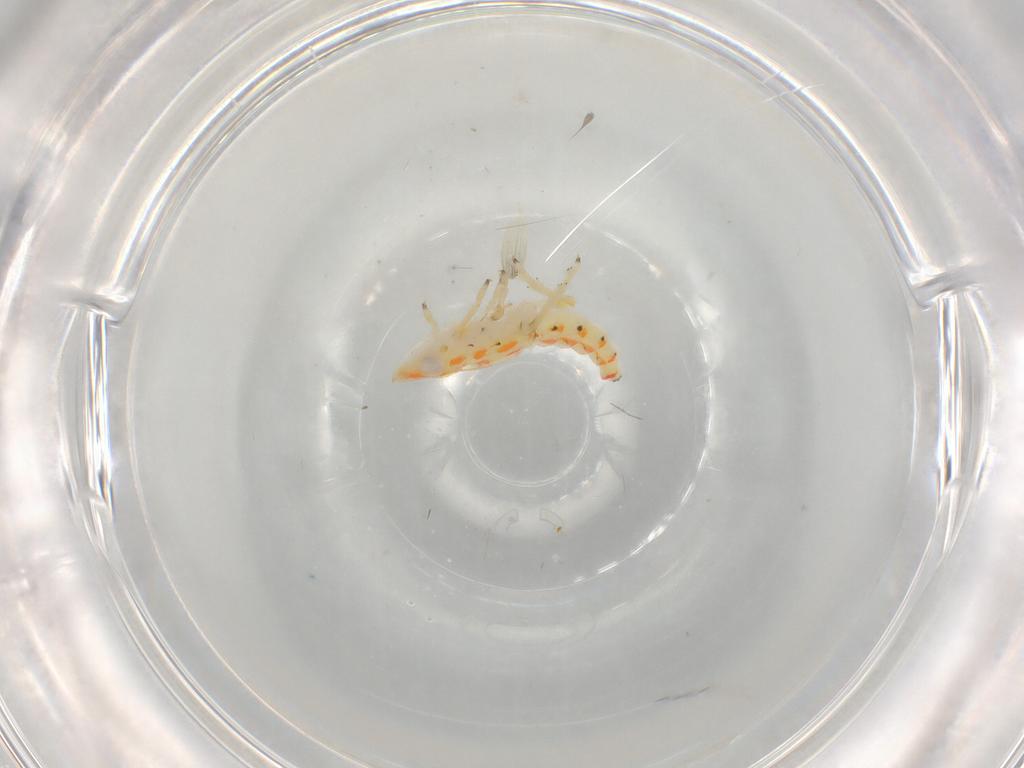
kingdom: Animalia
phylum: Arthropoda
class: Insecta
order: Hemiptera
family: Tropiduchidae
